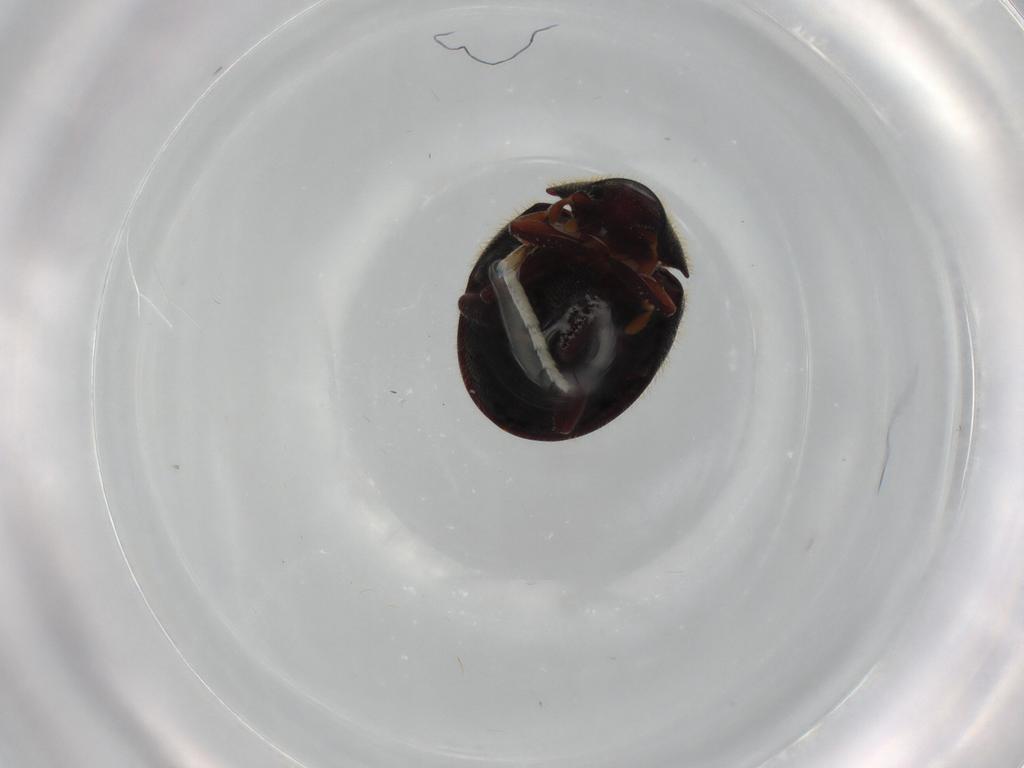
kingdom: Animalia
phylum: Arthropoda
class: Insecta
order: Coleoptera
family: Anobiidae
